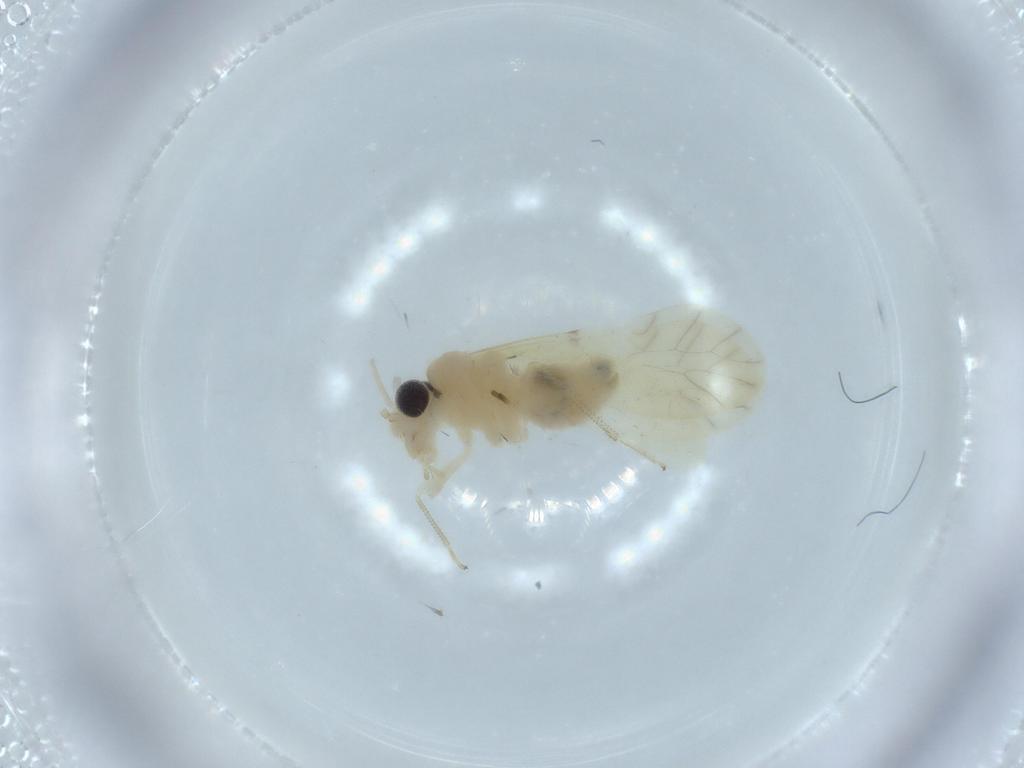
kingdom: Animalia
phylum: Arthropoda
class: Insecta
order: Psocodea
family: Caeciliusidae
